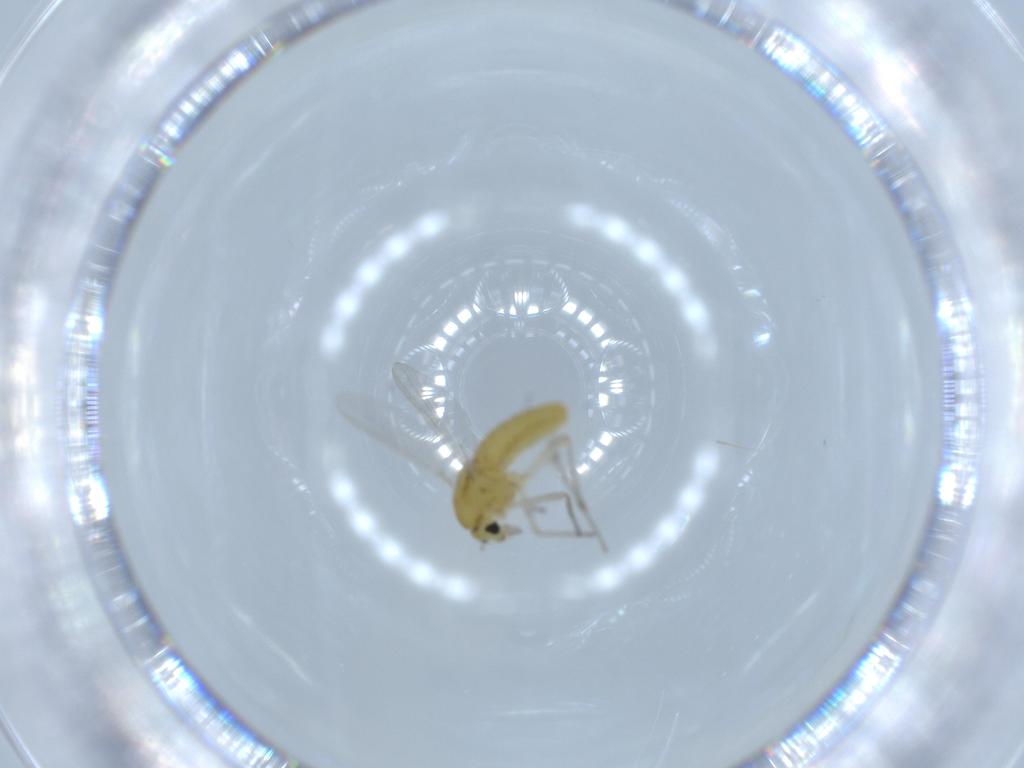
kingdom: Animalia
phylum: Arthropoda
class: Insecta
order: Diptera
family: Chironomidae
